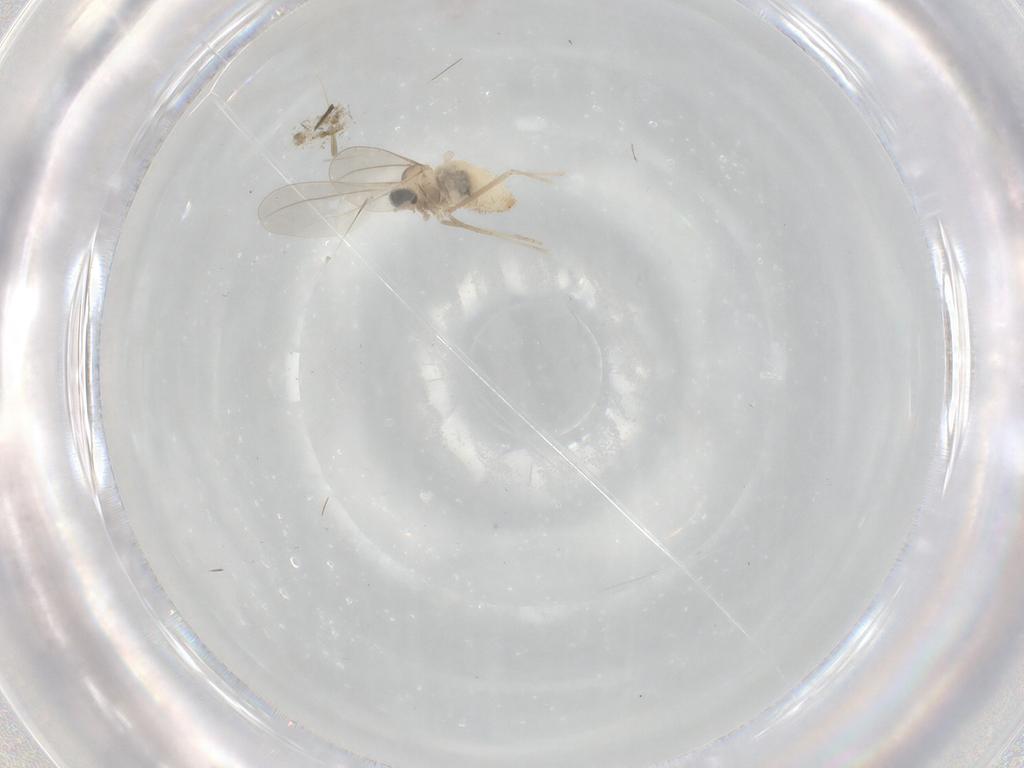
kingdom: Animalia
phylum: Arthropoda
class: Insecta
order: Diptera
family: Cecidomyiidae
